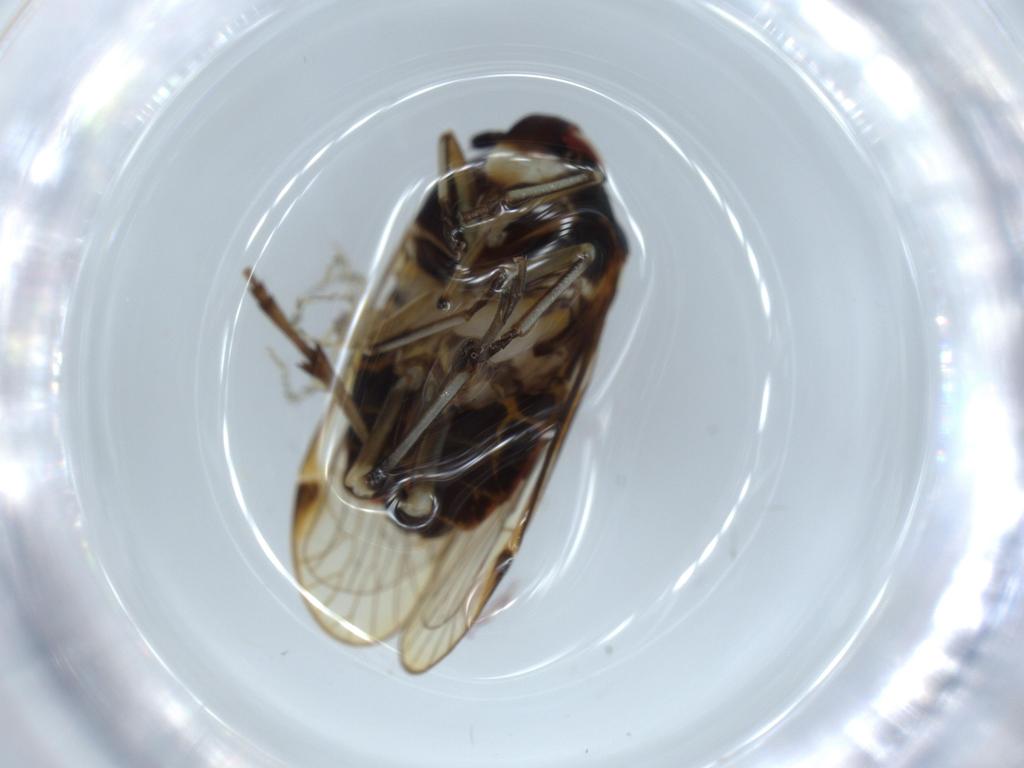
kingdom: Animalia
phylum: Arthropoda
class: Insecta
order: Hemiptera
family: Kinnaridae
